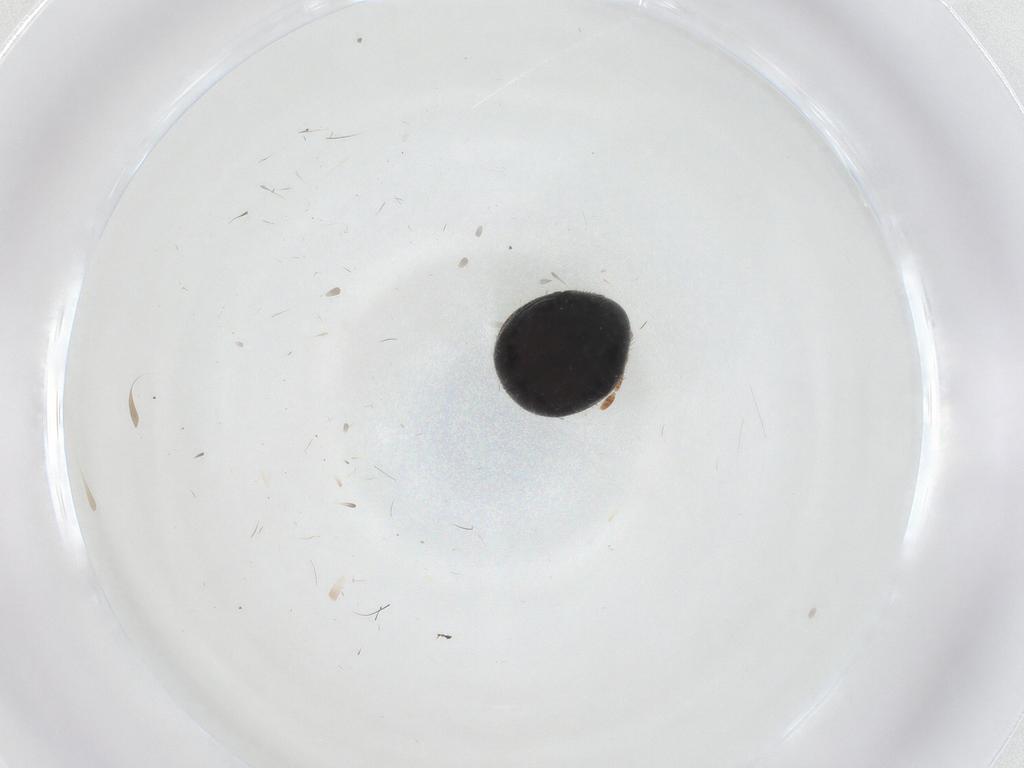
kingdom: Animalia
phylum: Arthropoda
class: Insecta
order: Coleoptera
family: Ptinidae
